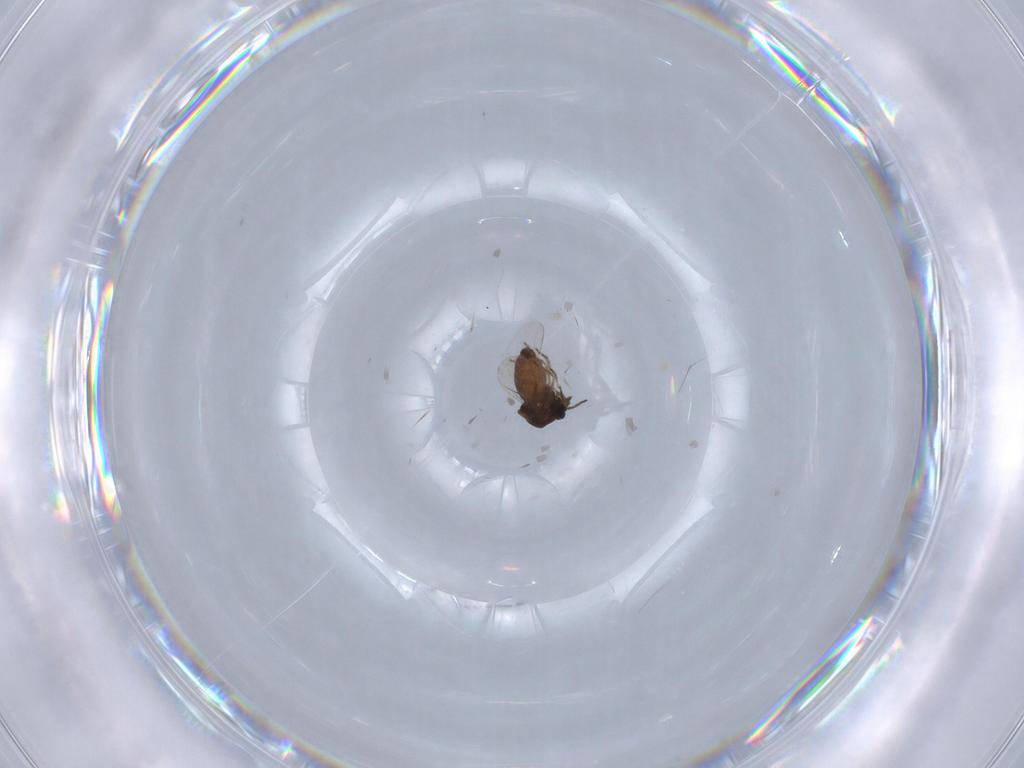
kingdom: Animalia
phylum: Arthropoda
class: Insecta
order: Diptera
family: Ceratopogonidae
